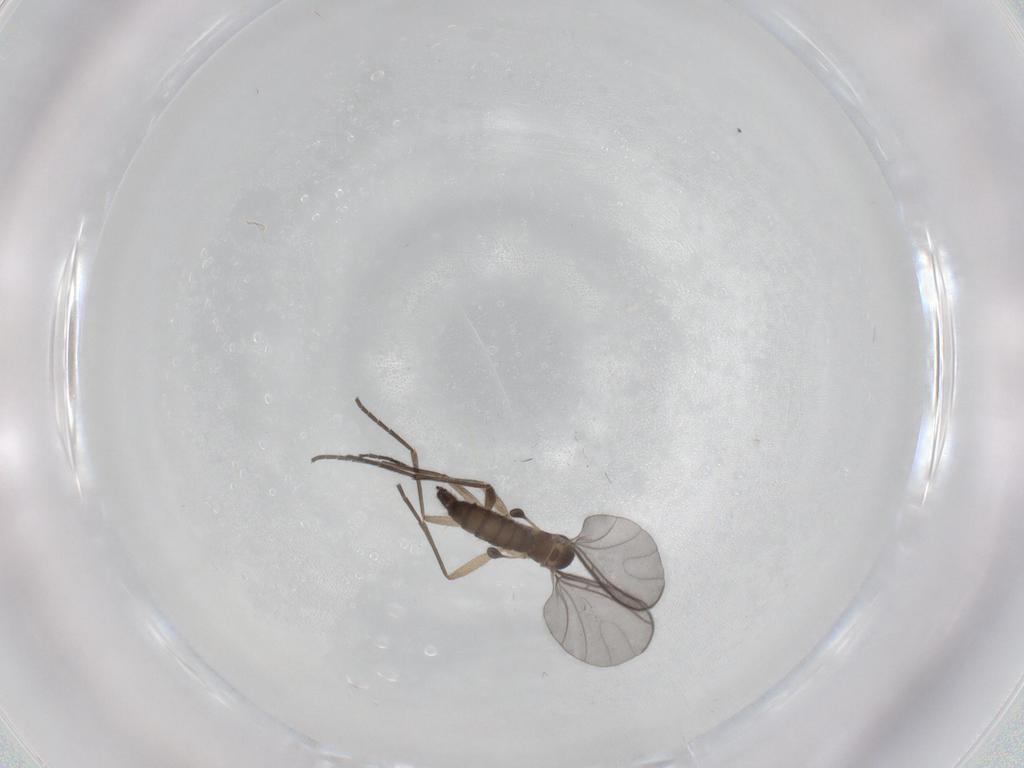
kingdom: Animalia
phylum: Arthropoda
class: Insecta
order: Diptera
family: Sciaridae
